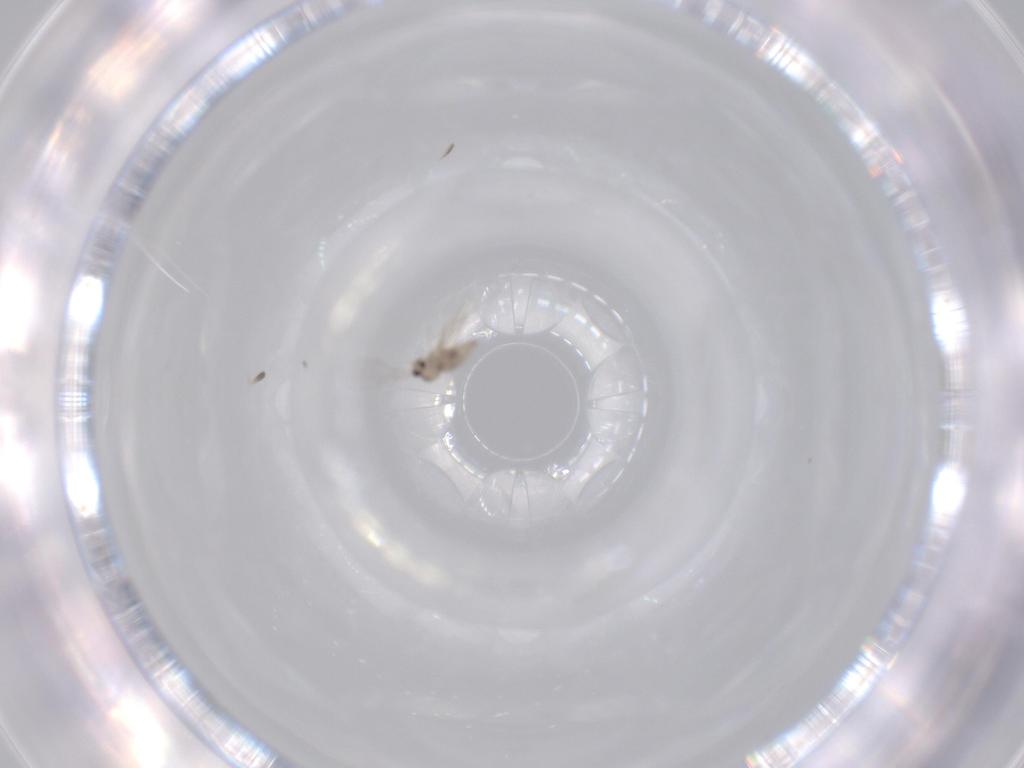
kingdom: Animalia
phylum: Arthropoda
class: Insecta
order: Diptera
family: Cecidomyiidae
